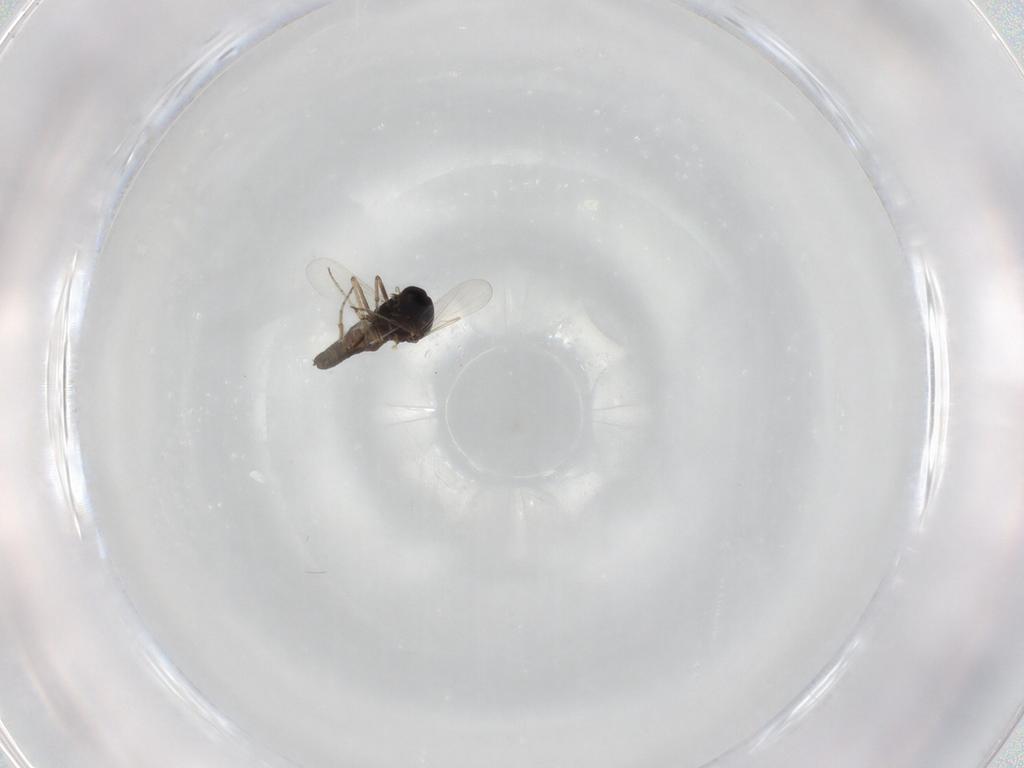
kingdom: Animalia
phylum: Arthropoda
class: Insecta
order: Diptera
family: Ceratopogonidae
